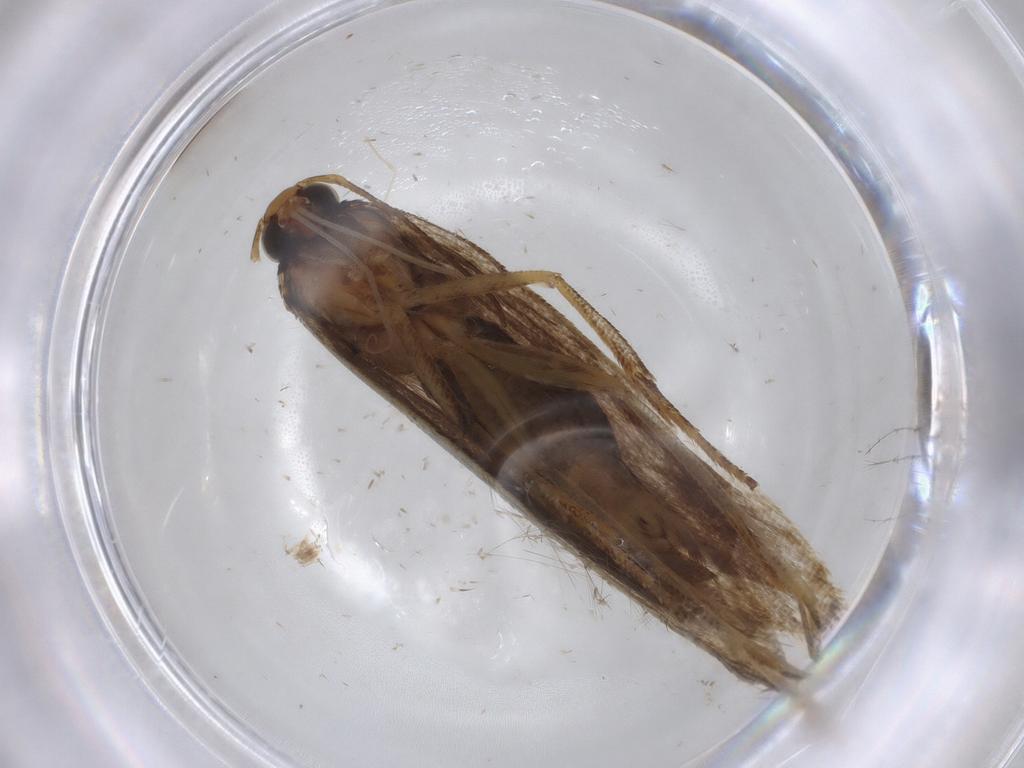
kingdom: Animalia
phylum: Arthropoda
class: Insecta
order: Lepidoptera
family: Gelechiidae
